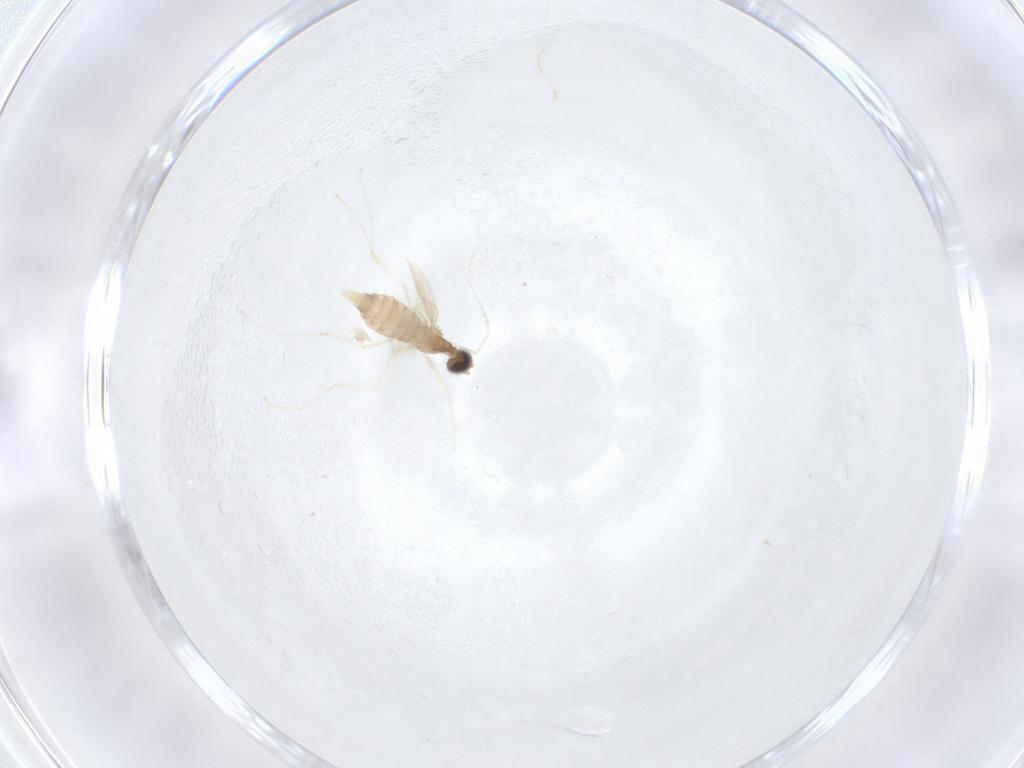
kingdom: Animalia
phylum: Arthropoda
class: Insecta
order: Diptera
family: Cecidomyiidae
